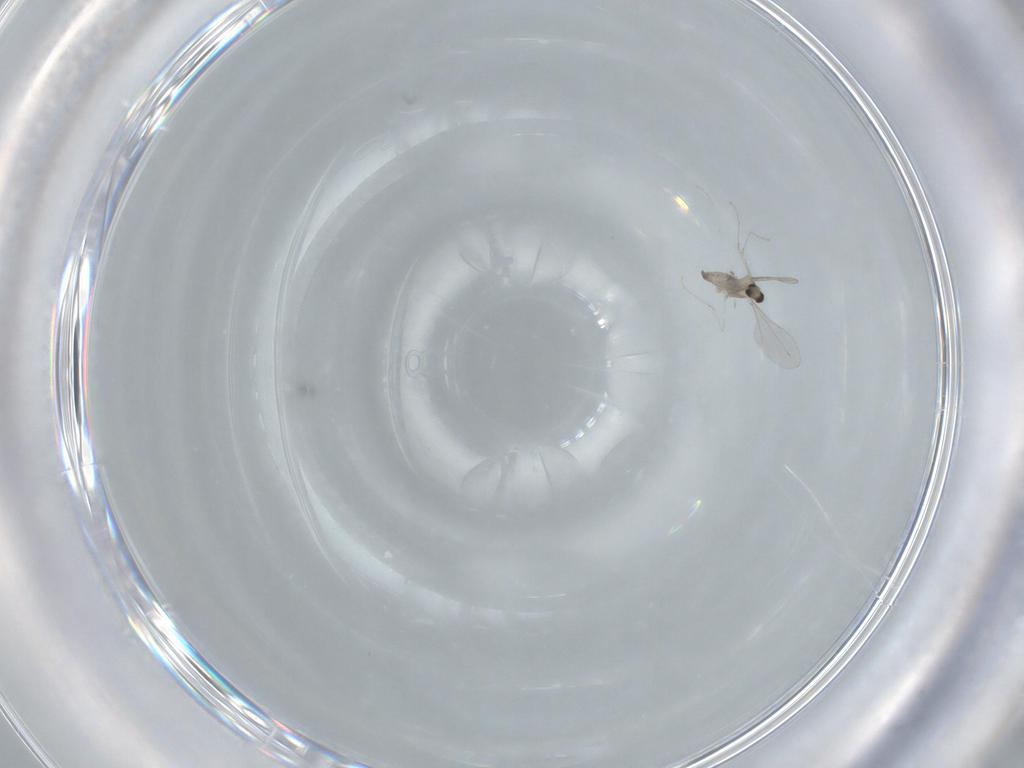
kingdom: Animalia
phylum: Arthropoda
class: Insecta
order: Diptera
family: Cecidomyiidae
